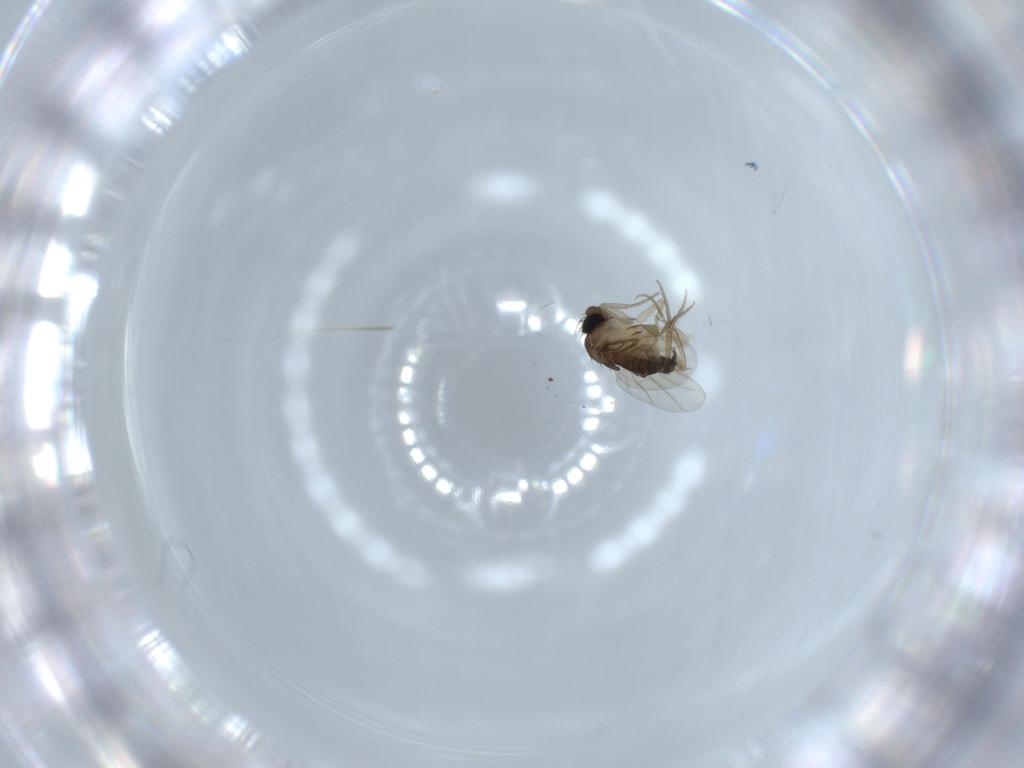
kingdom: Animalia
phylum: Arthropoda
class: Insecta
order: Diptera
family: Phoridae
